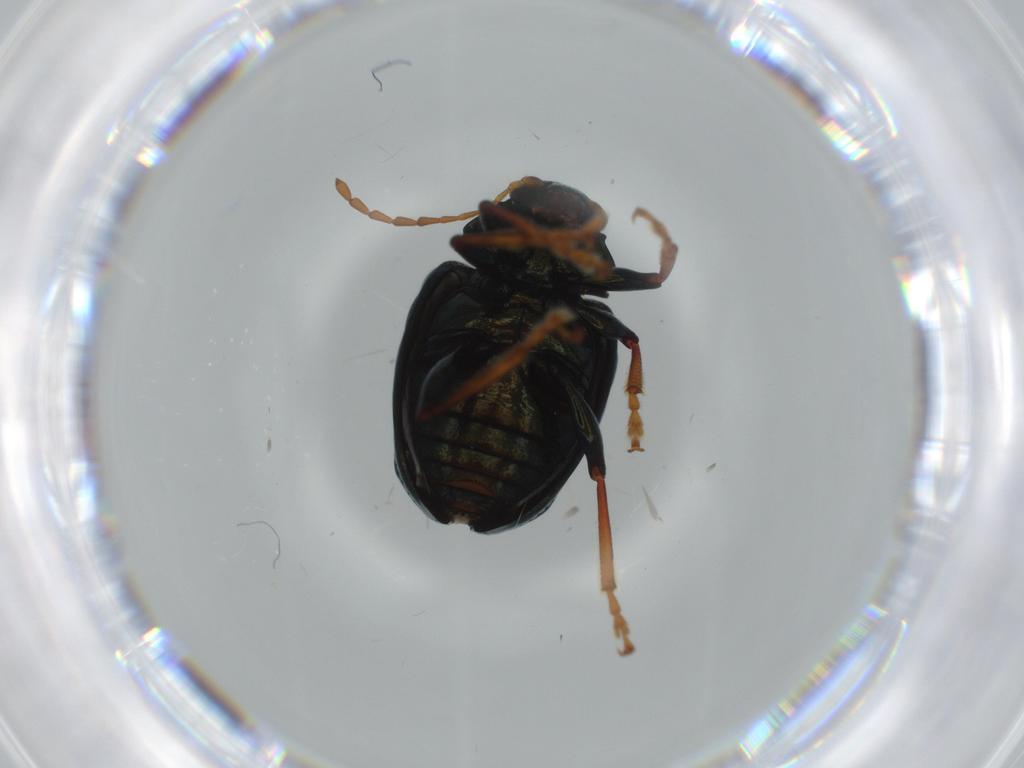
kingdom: Animalia
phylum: Arthropoda
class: Insecta
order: Coleoptera
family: Chrysomelidae
